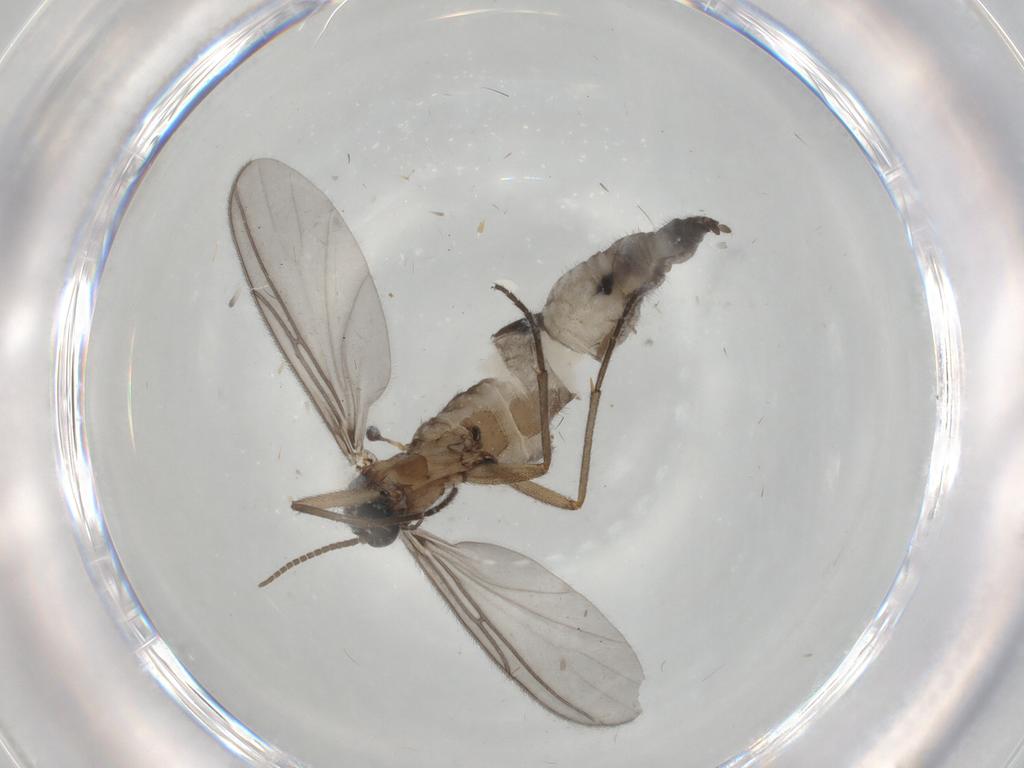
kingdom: Animalia
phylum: Arthropoda
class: Insecta
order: Diptera
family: Sciaridae
